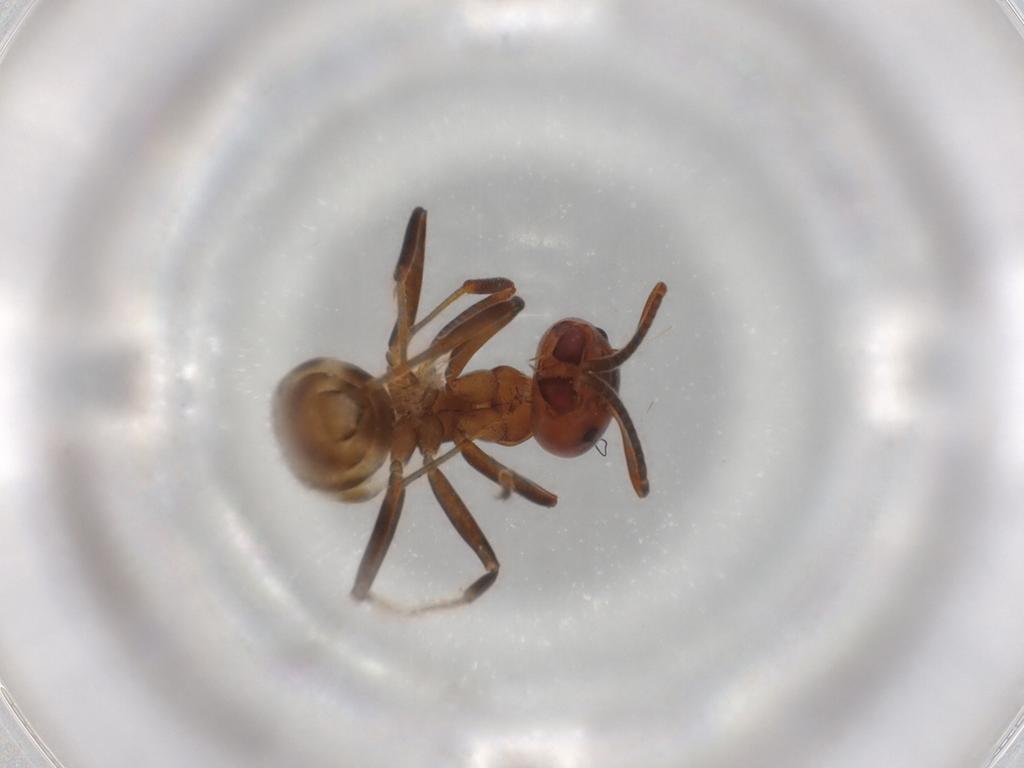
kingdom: Animalia
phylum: Arthropoda
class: Insecta
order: Hymenoptera
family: Formicidae
